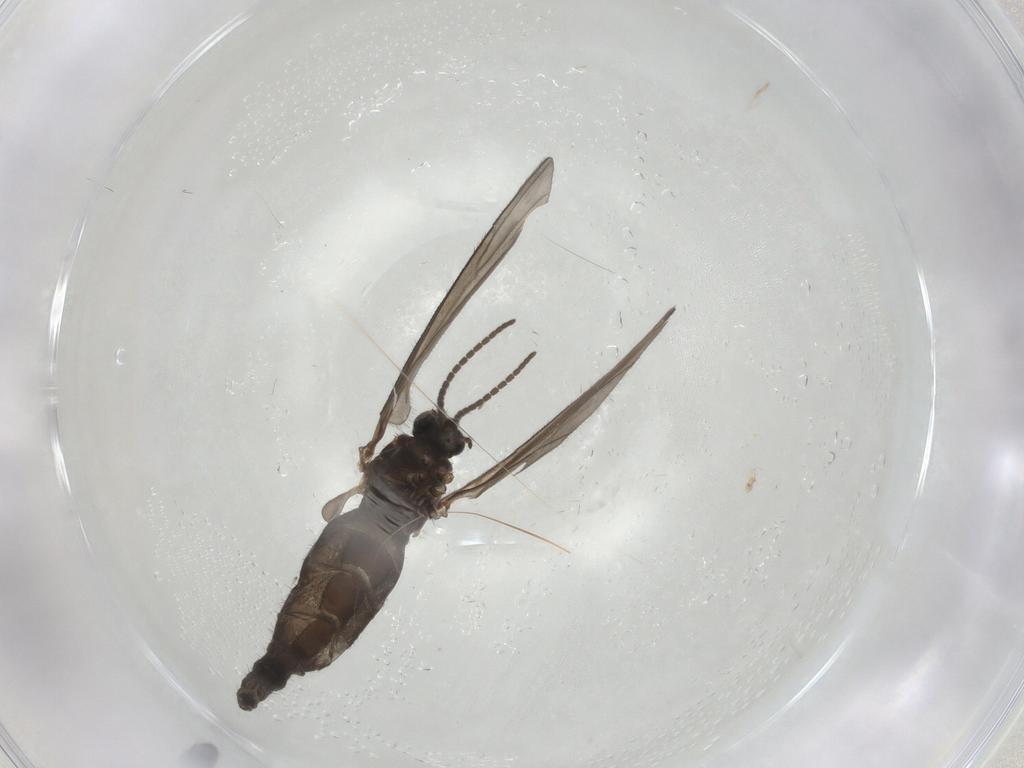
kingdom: Animalia
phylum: Arthropoda
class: Insecta
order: Diptera
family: Sciaridae
